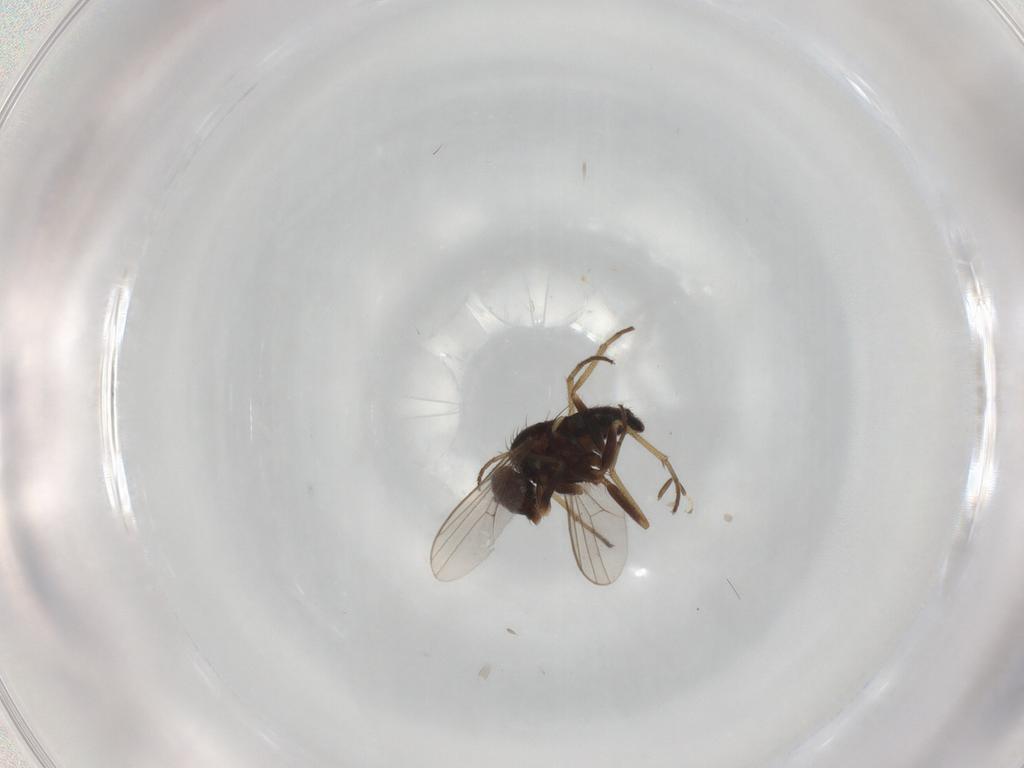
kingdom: Animalia
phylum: Arthropoda
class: Insecta
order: Diptera
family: Dolichopodidae
